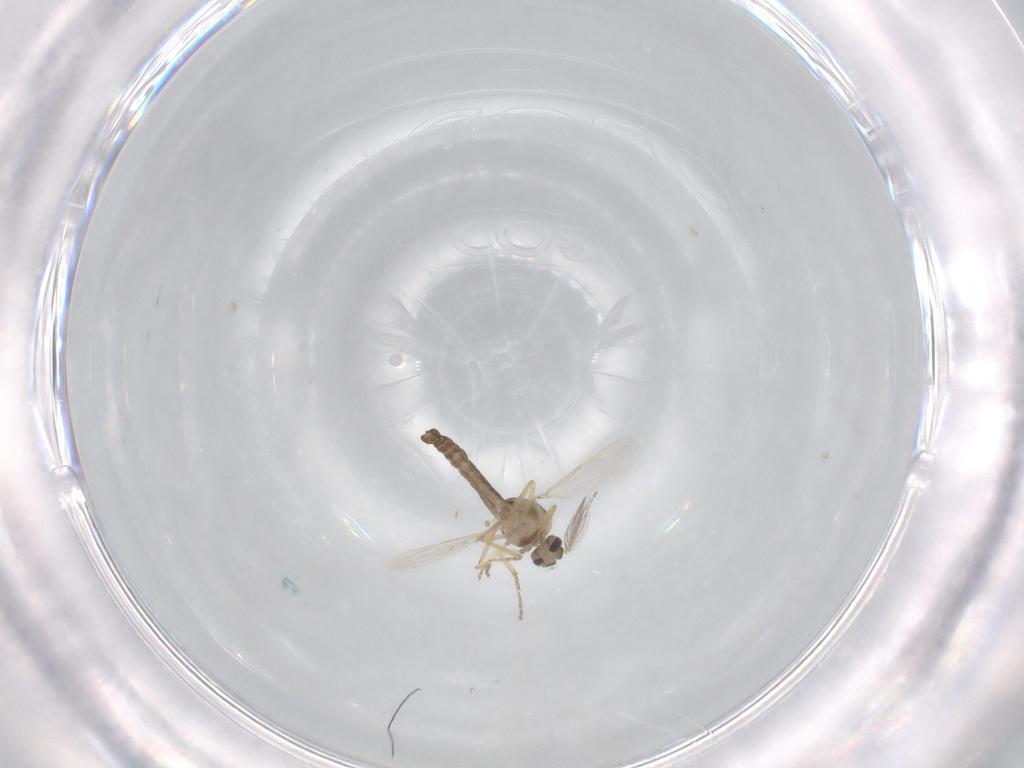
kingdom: Animalia
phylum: Arthropoda
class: Insecta
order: Diptera
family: Ceratopogonidae
